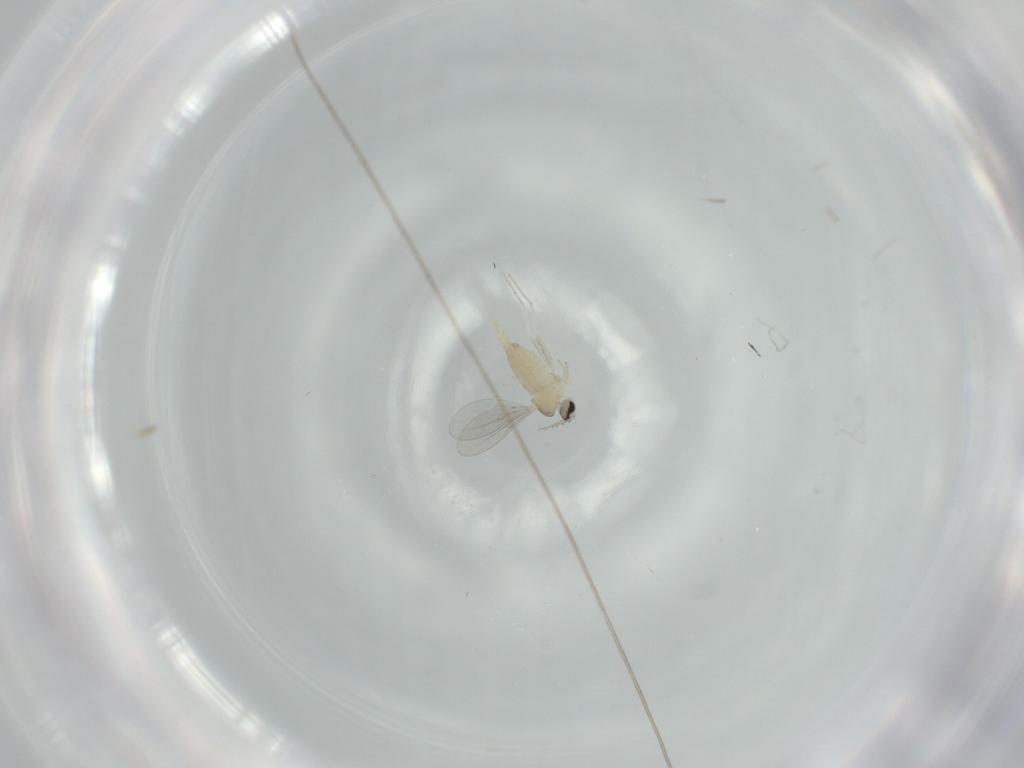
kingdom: Animalia
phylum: Arthropoda
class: Insecta
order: Diptera
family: Cecidomyiidae
